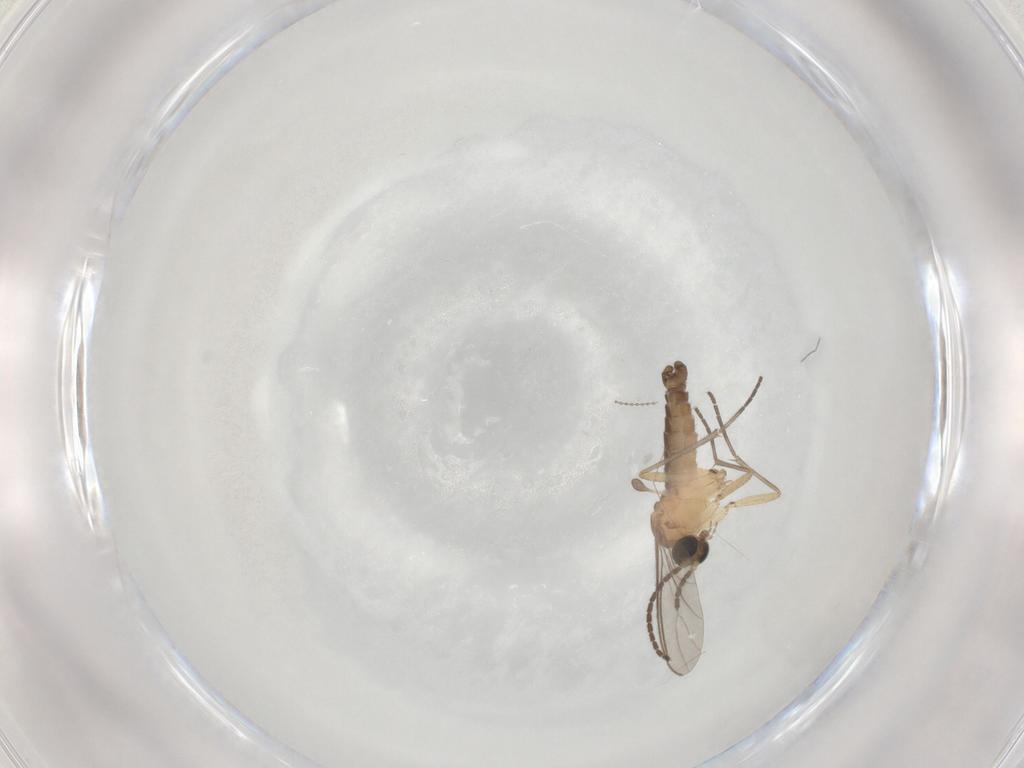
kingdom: Animalia
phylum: Arthropoda
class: Insecta
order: Diptera
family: Sciaridae
